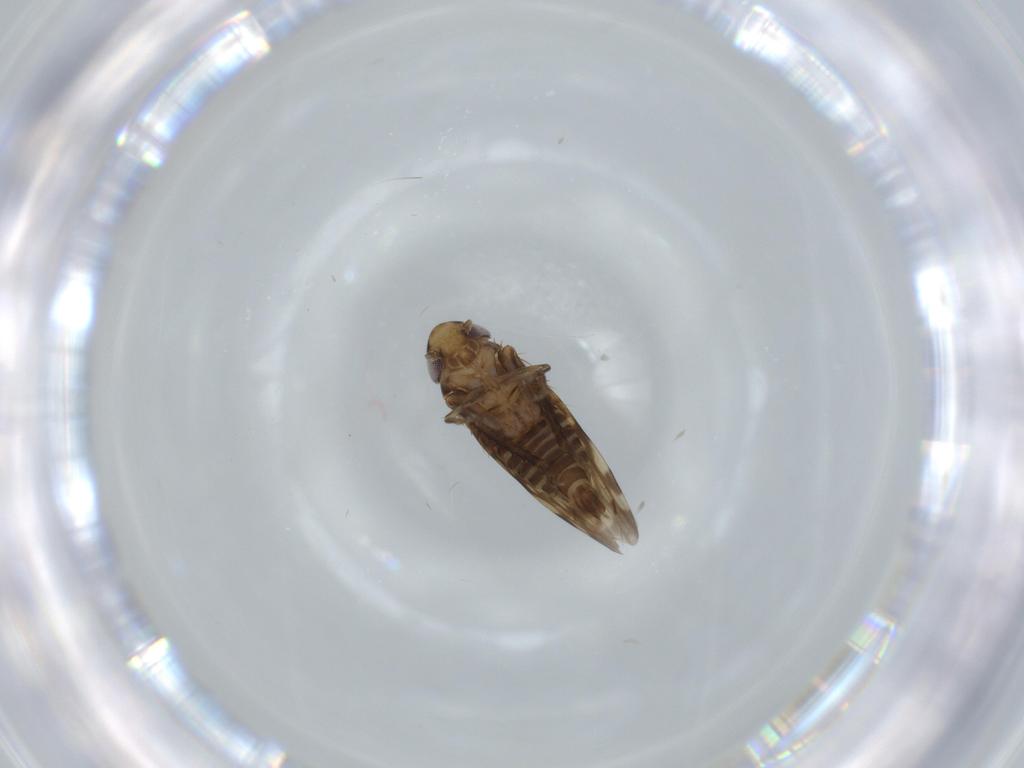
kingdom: Animalia
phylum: Arthropoda
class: Insecta
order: Hemiptera
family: Cicadellidae
